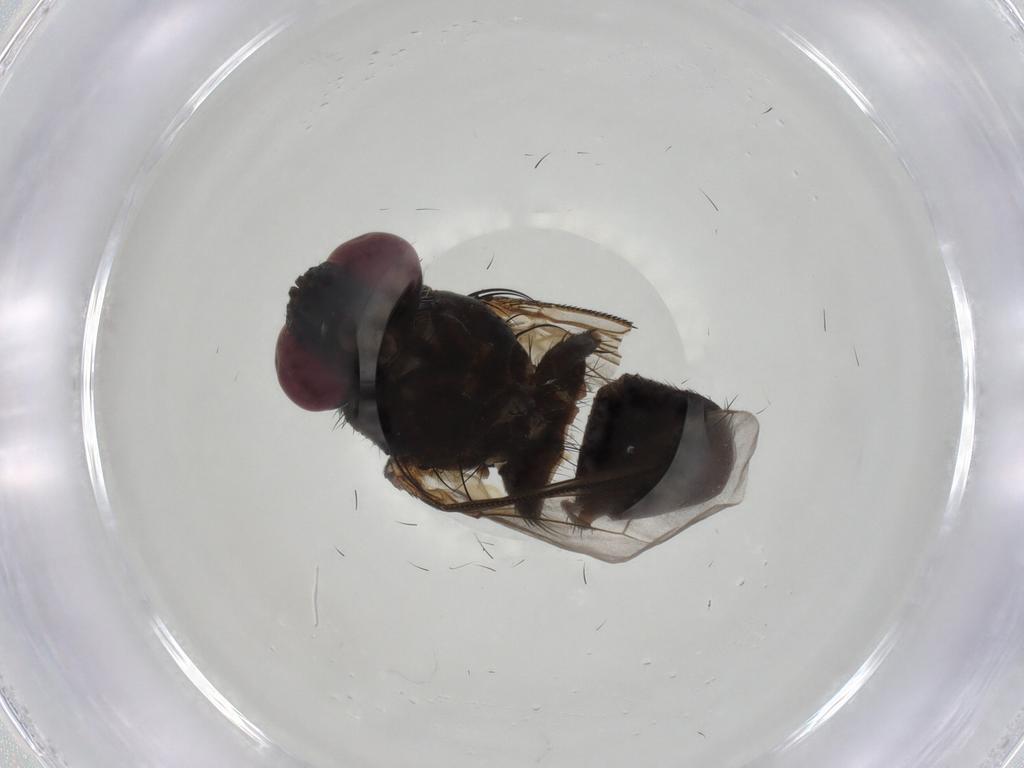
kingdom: Animalia
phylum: Arthropoda
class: Insecta
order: Diptera
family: Tachinidae
